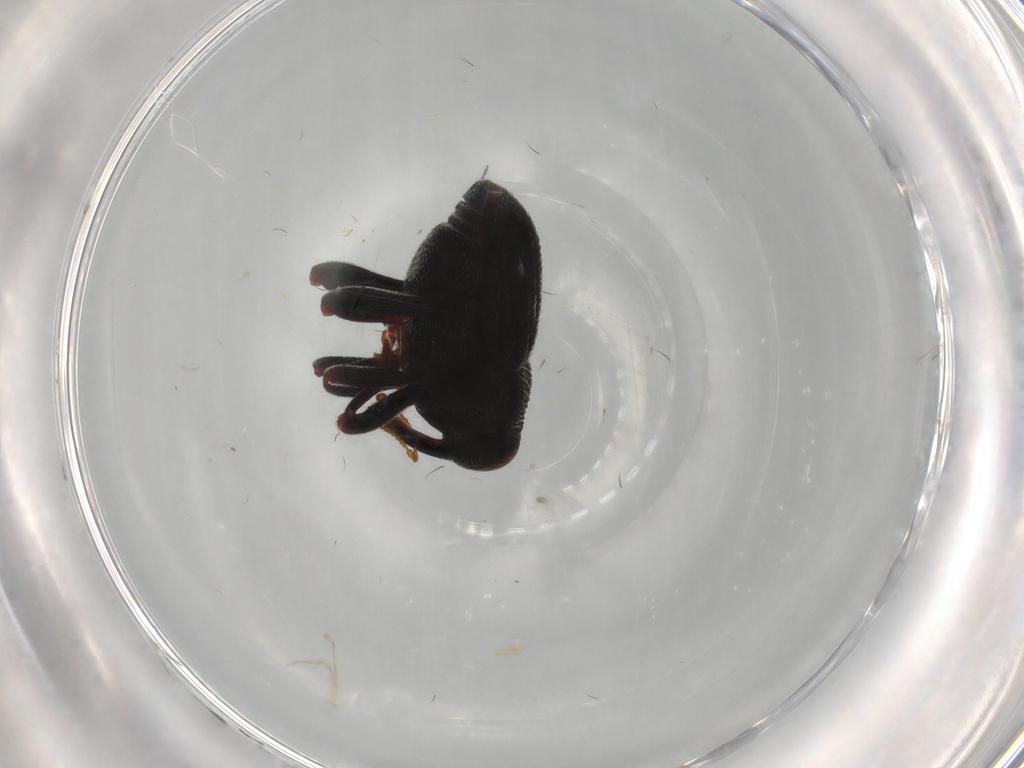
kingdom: Animalia
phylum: Arthropoda
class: Insecta
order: Coleoptera
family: Curculionidae
